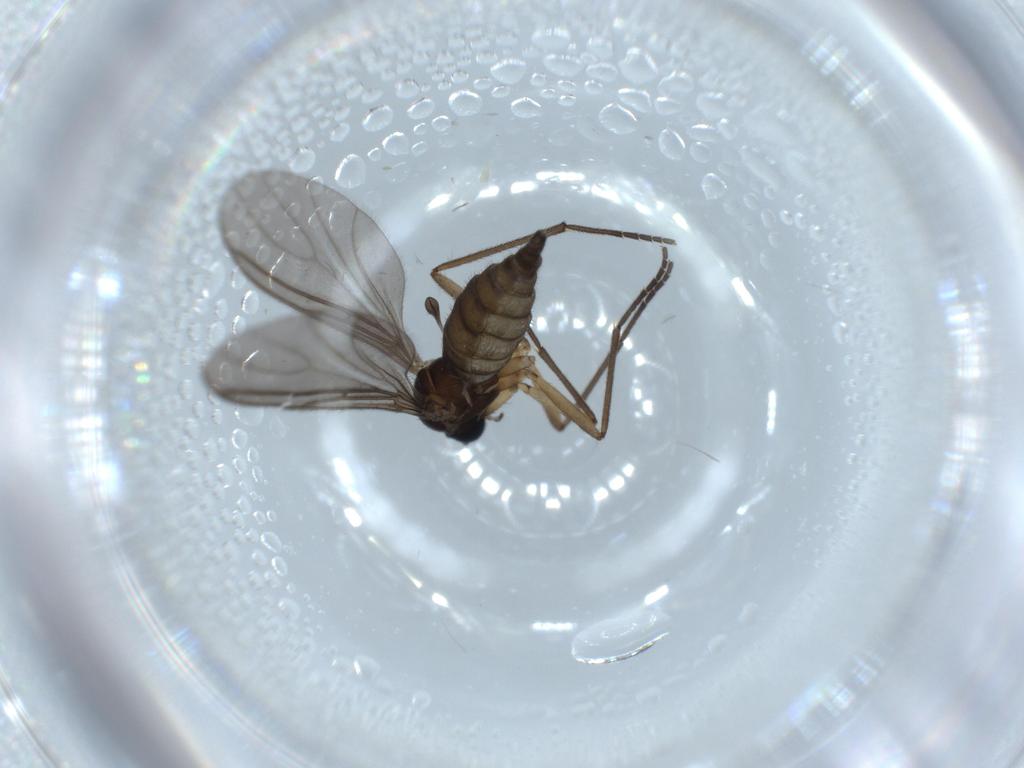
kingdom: Animalia
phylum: Arthropoda
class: Insecta
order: Diptera
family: Sciaridae
